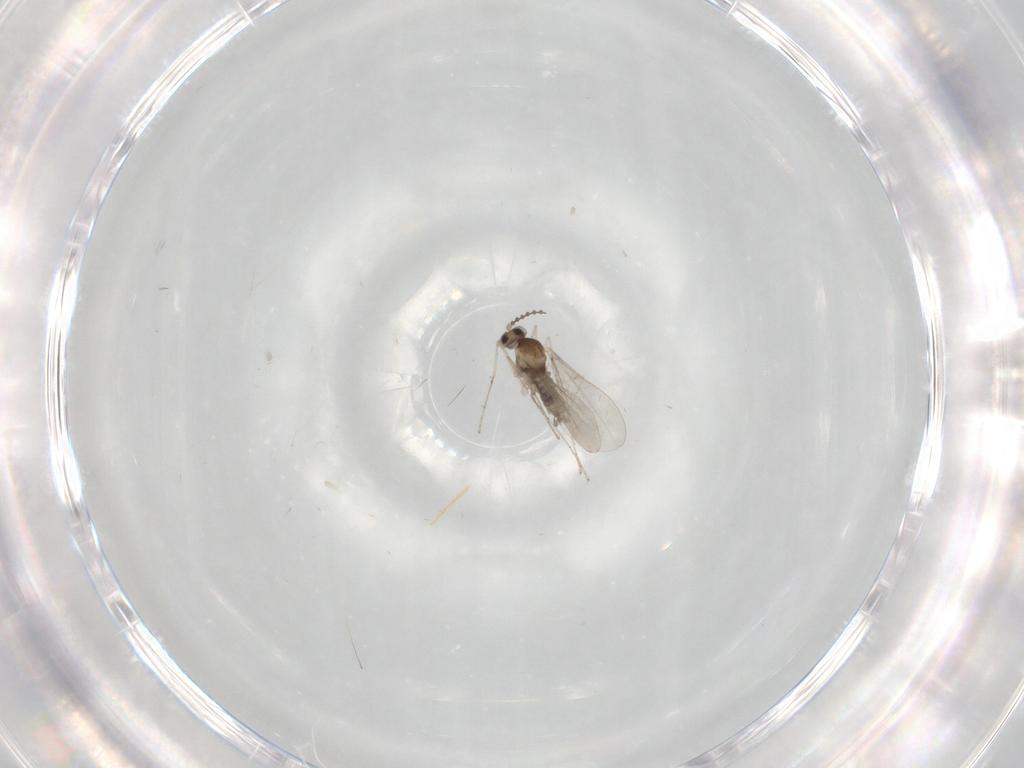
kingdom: Animalia
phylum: Arthropoda
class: Insecta
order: Diptera
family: Cecidomyiidae
